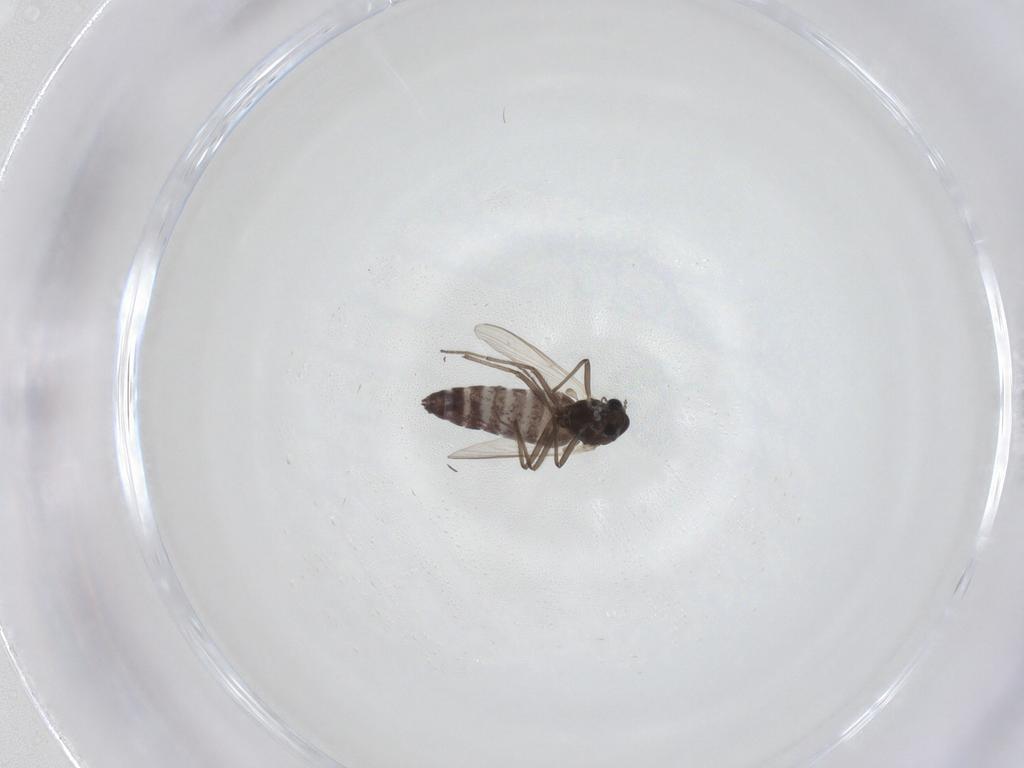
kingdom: Animalia
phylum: Arthropoda
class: Insecta
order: Diptera
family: Chironomidae
